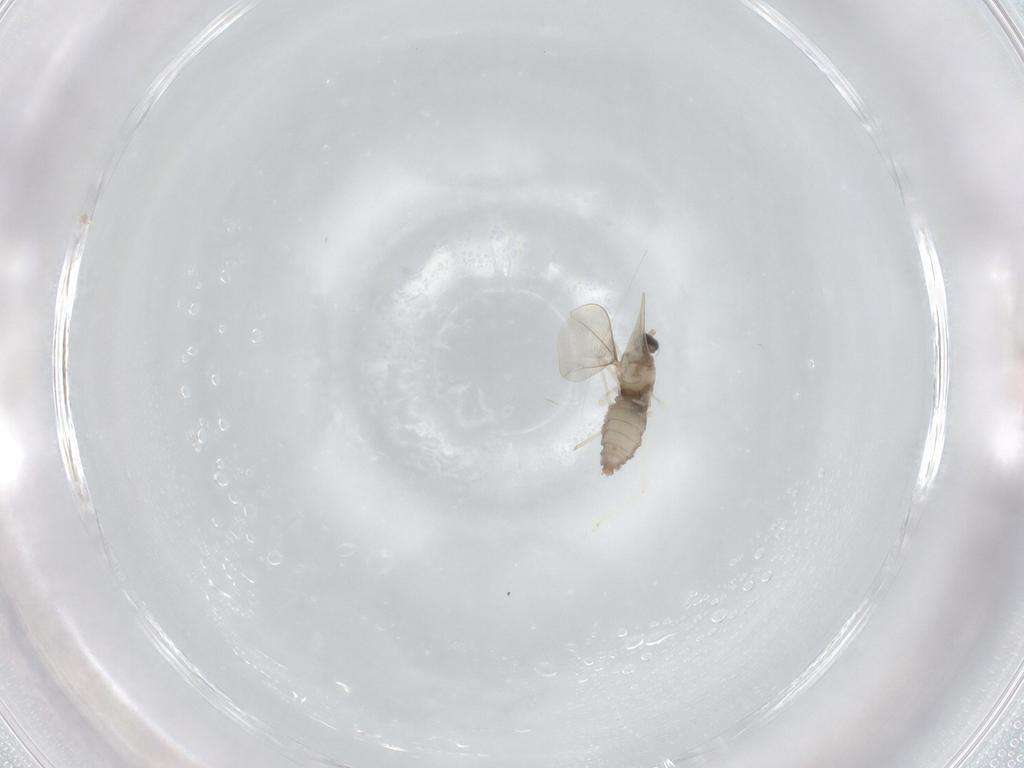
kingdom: Animalia
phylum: Arthropoda
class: Insecta
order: Diptera
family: Cecidomyiidae
